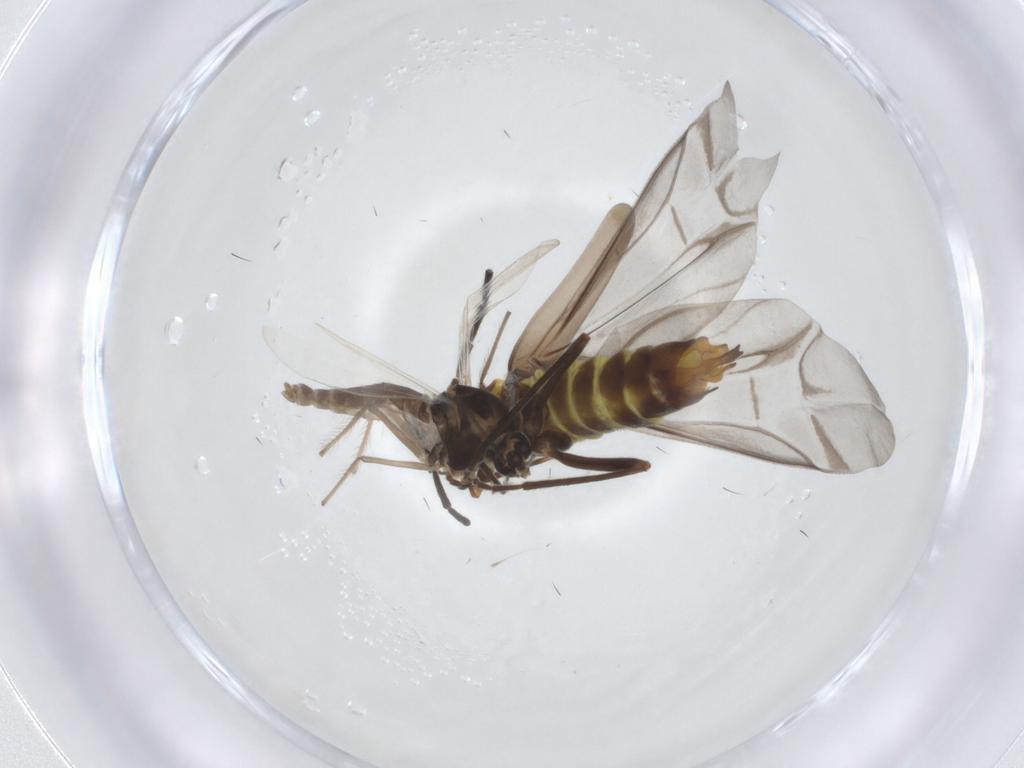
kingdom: Animalia
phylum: Arthropoda
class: Insecta
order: Diptera
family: Chironomidae
